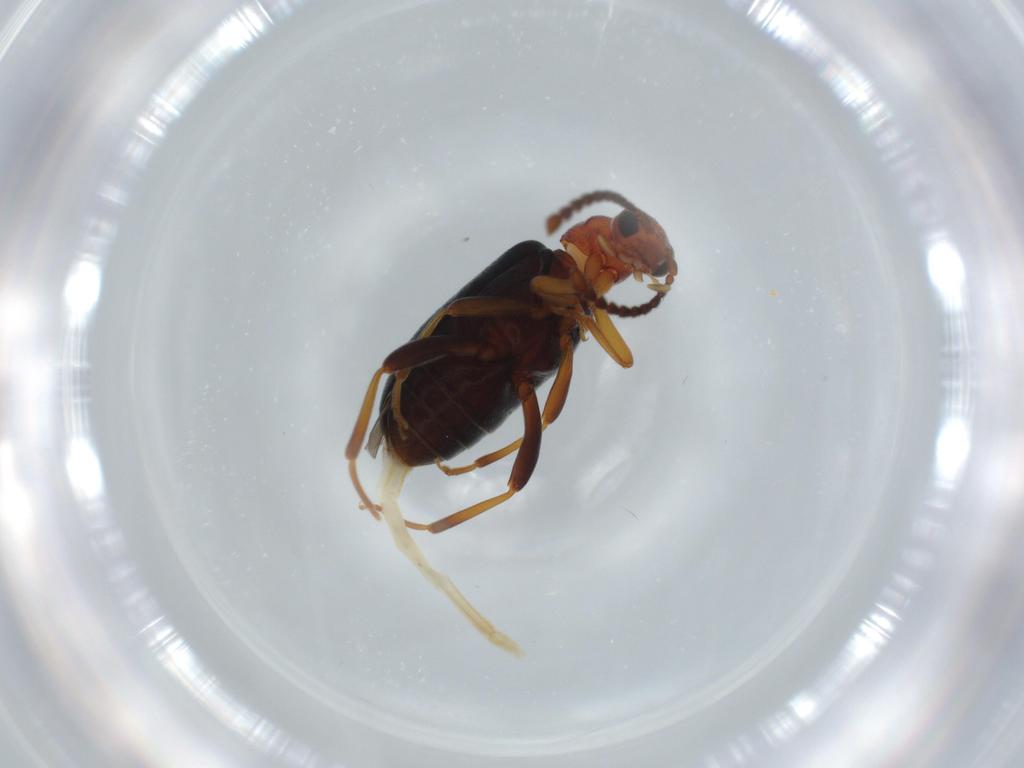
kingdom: Animalia
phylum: Arthropoda
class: Insecta
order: Coleoptera
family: Aderidae
